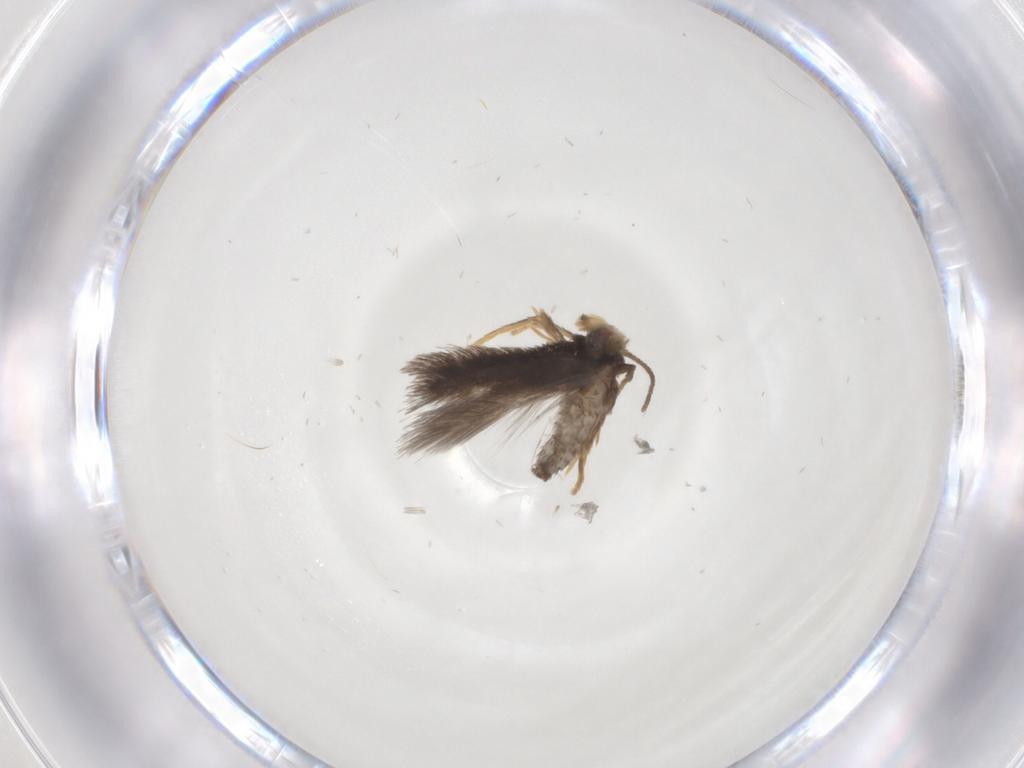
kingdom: Animalia
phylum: Arthropoda
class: Insecta
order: Lepidoptera
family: Nepticulidae
